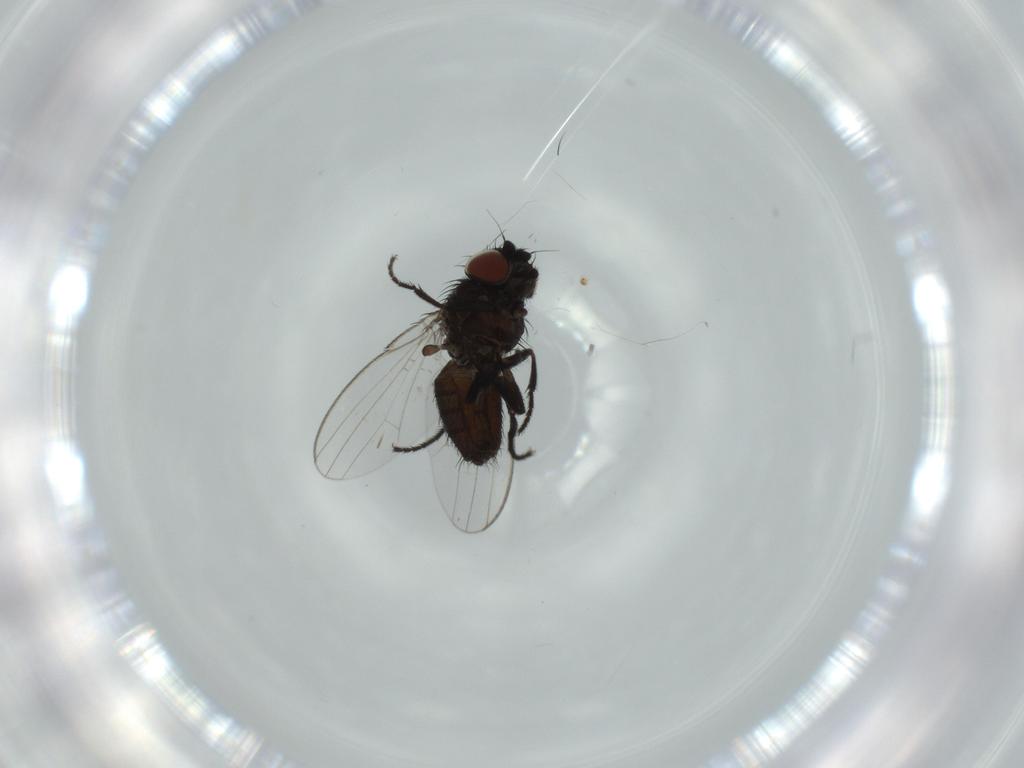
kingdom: Animalia
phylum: Arthropoda
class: Insecta
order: Diptera
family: Milichiidae
